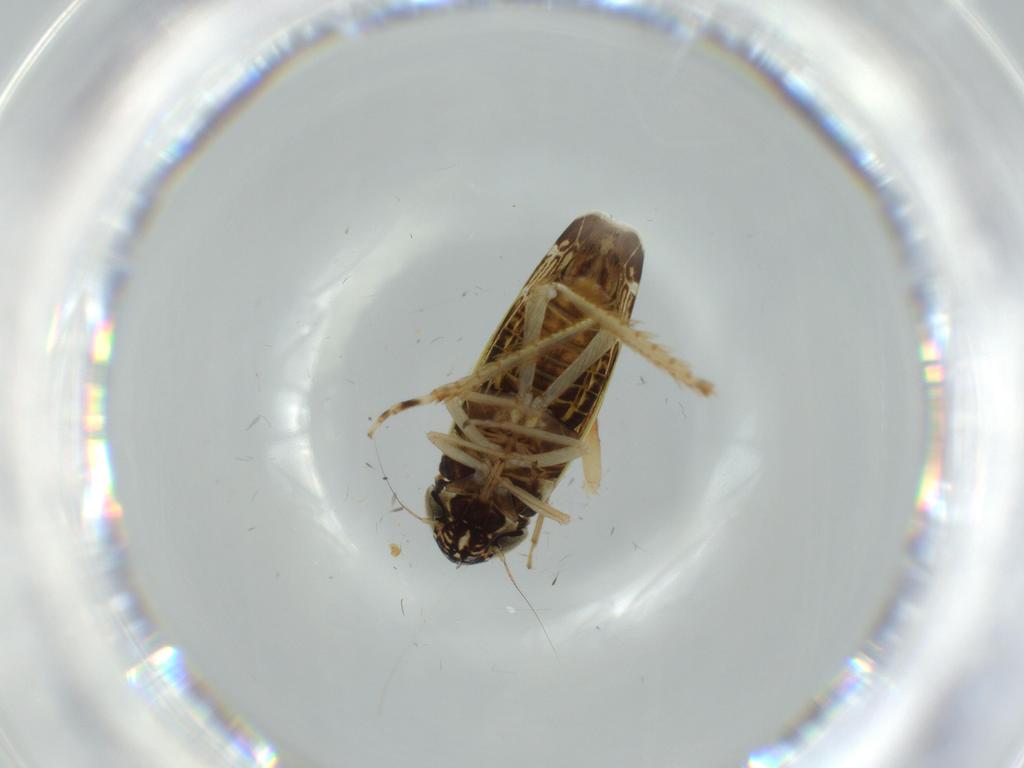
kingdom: Animalia
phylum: Arthropoda
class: Insecta
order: Hemiptera
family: Cicadellidae
